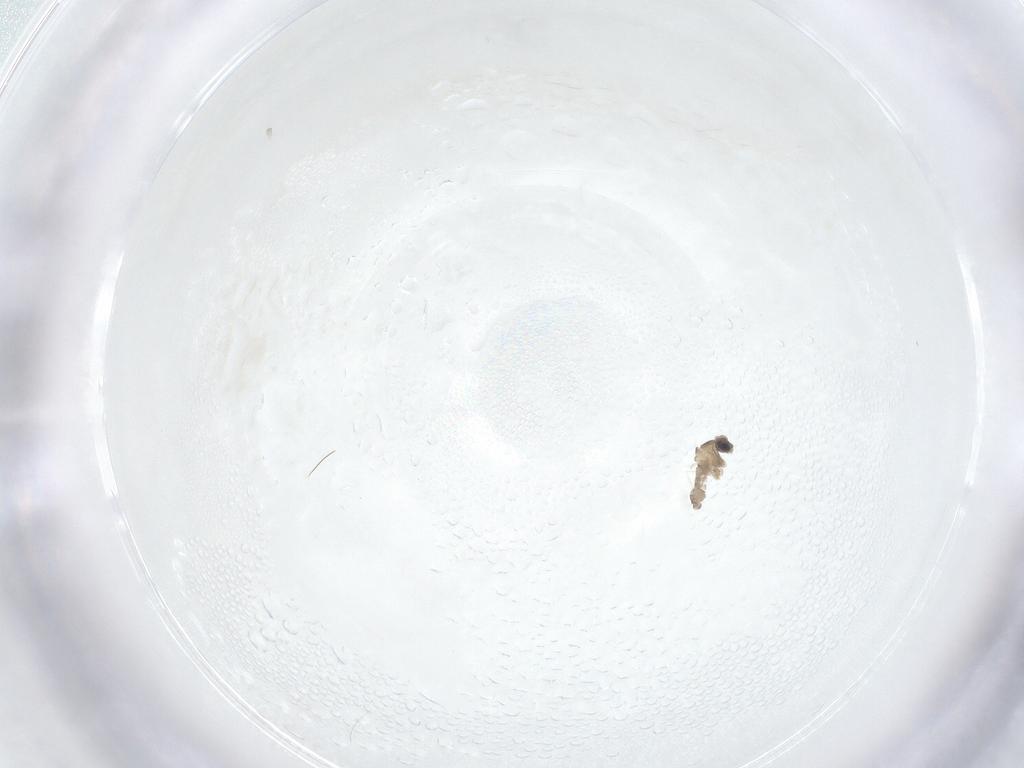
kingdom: Animalia
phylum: Arthropoda
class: Insecta
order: Diptera
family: Cecidomyiidae
